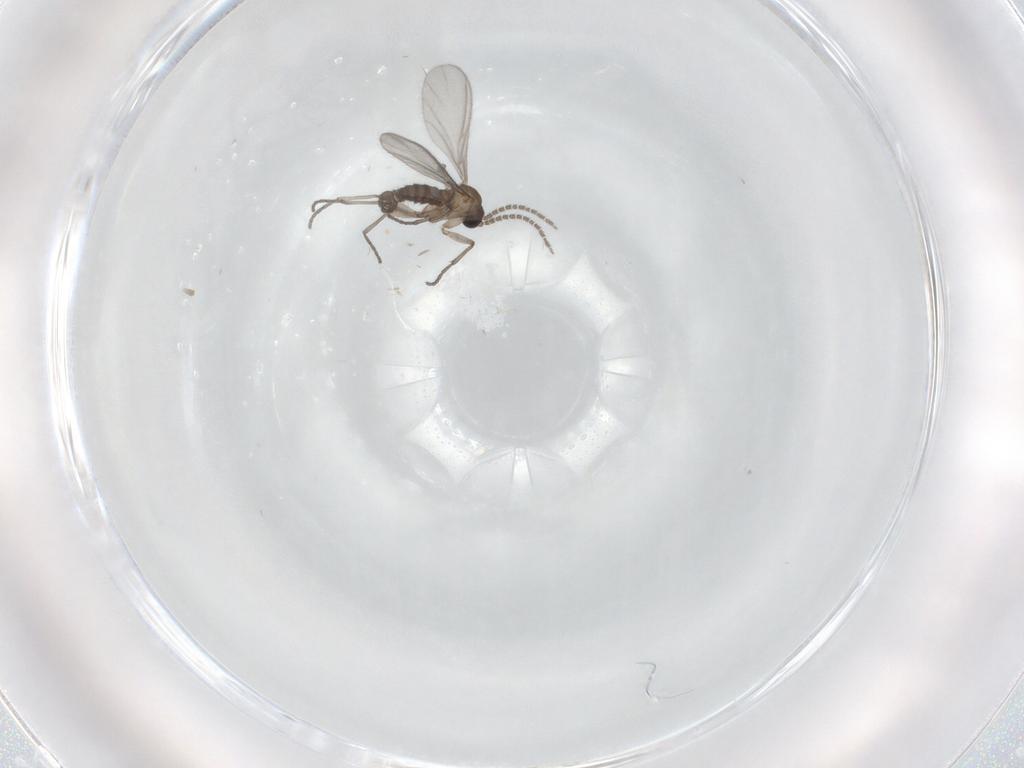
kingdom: Animalia
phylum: Arthropoda
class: Insecta
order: Diptera
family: Sciaridae
